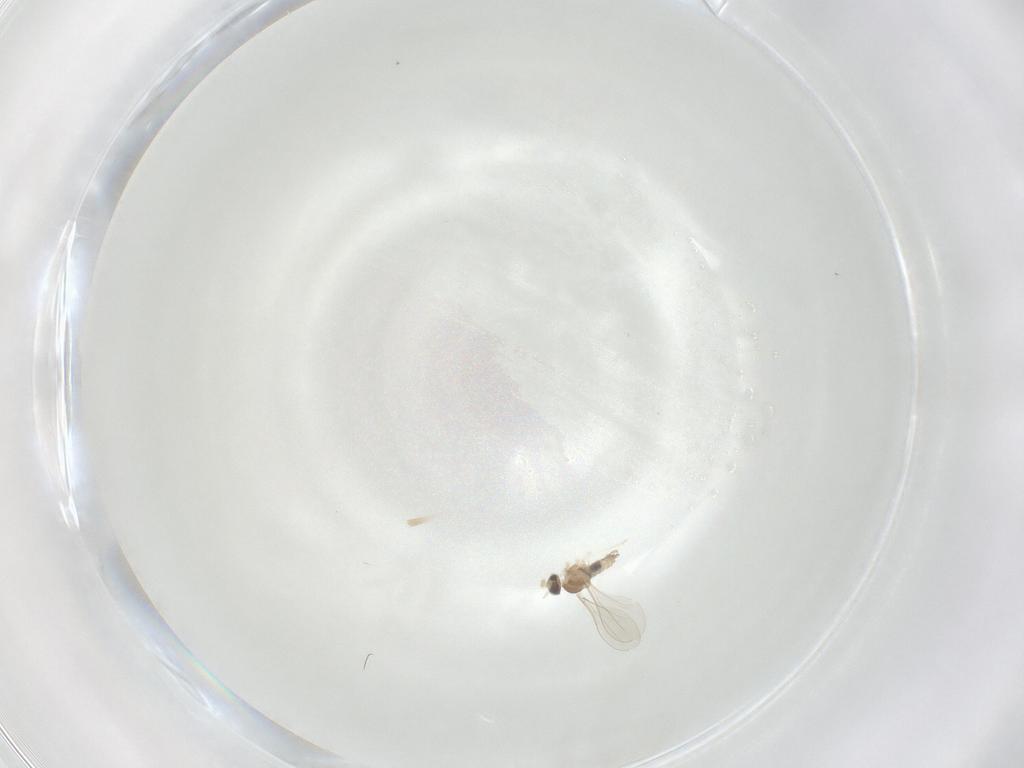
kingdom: Animalia
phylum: Arthropoda
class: Insecta
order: Diptera
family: Cecidomyiidae
